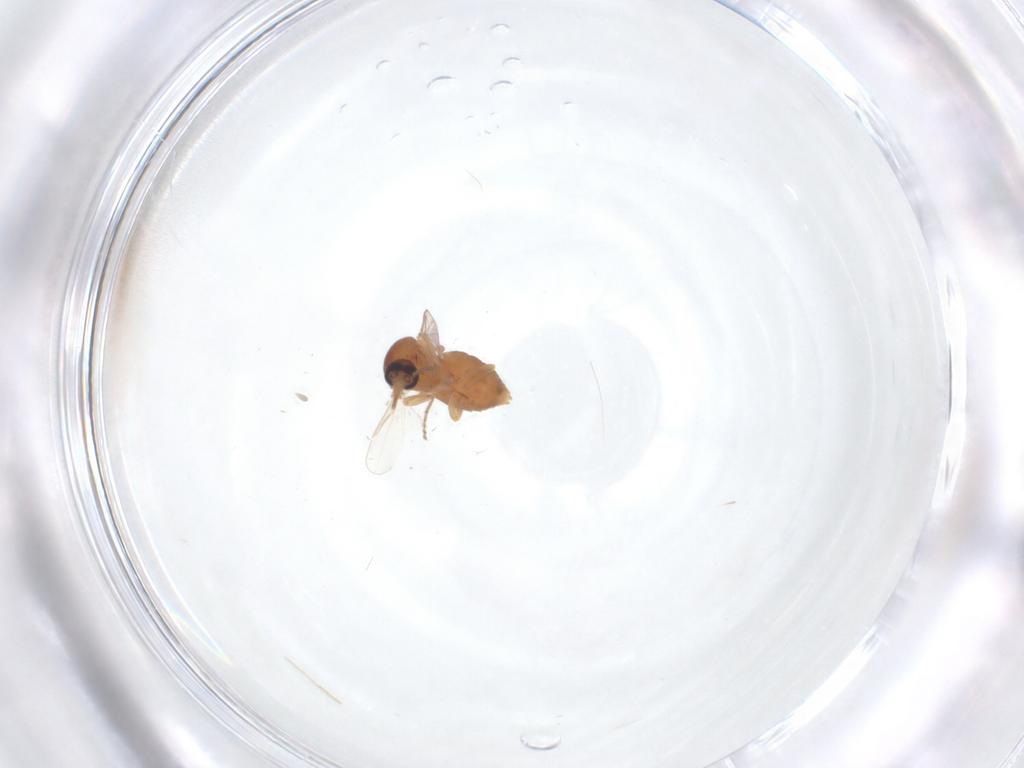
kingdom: Animalia
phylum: Arthropoda
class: Insecta
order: Diptera
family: Ceratopogonidae
